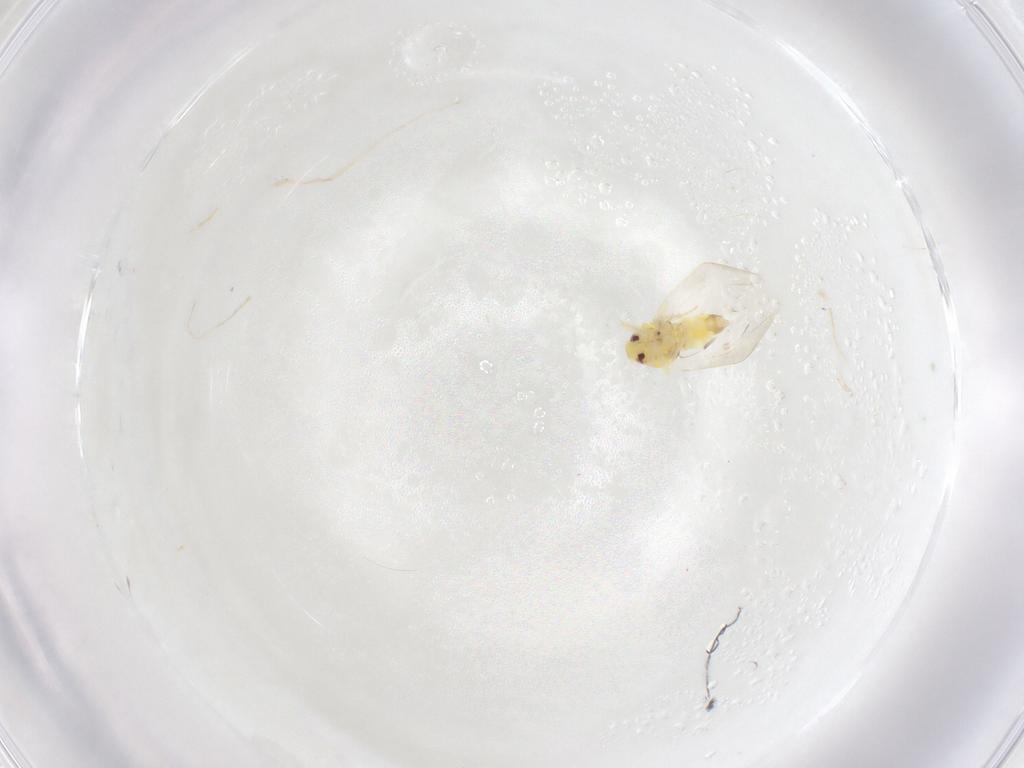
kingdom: Animalia
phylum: Arthropoda
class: Insecta
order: Hemiptera
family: Aleyrodidae
